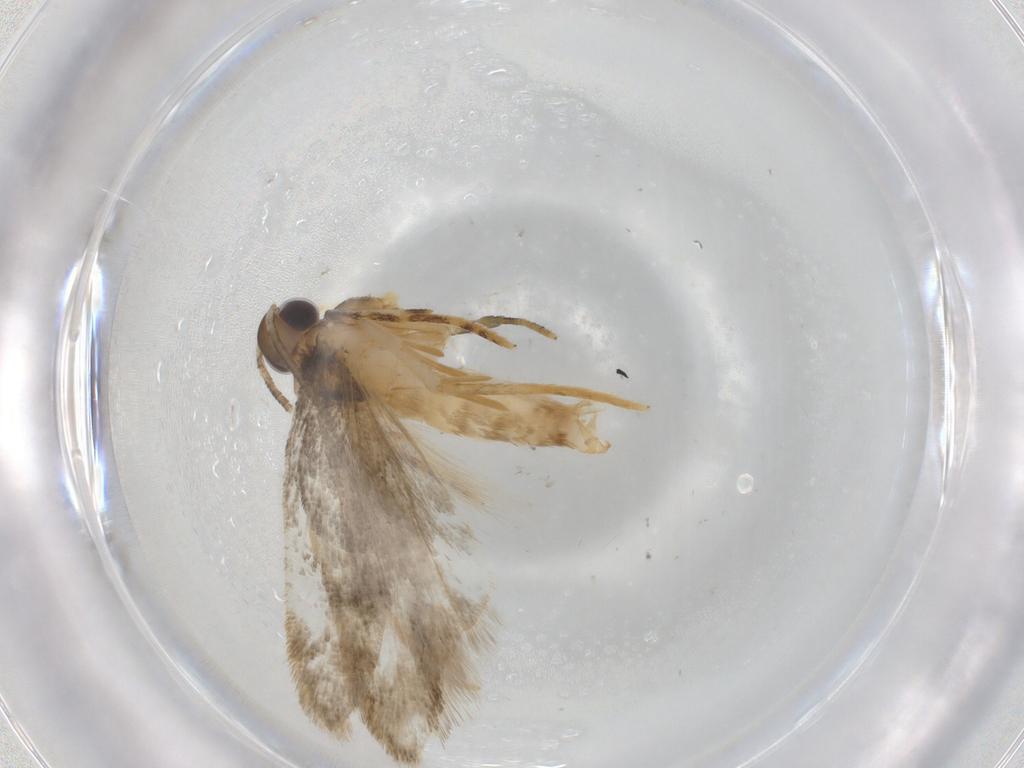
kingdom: Animalia
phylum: Arthropoda
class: Insecta
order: Lepidoptera
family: Autostichidae
